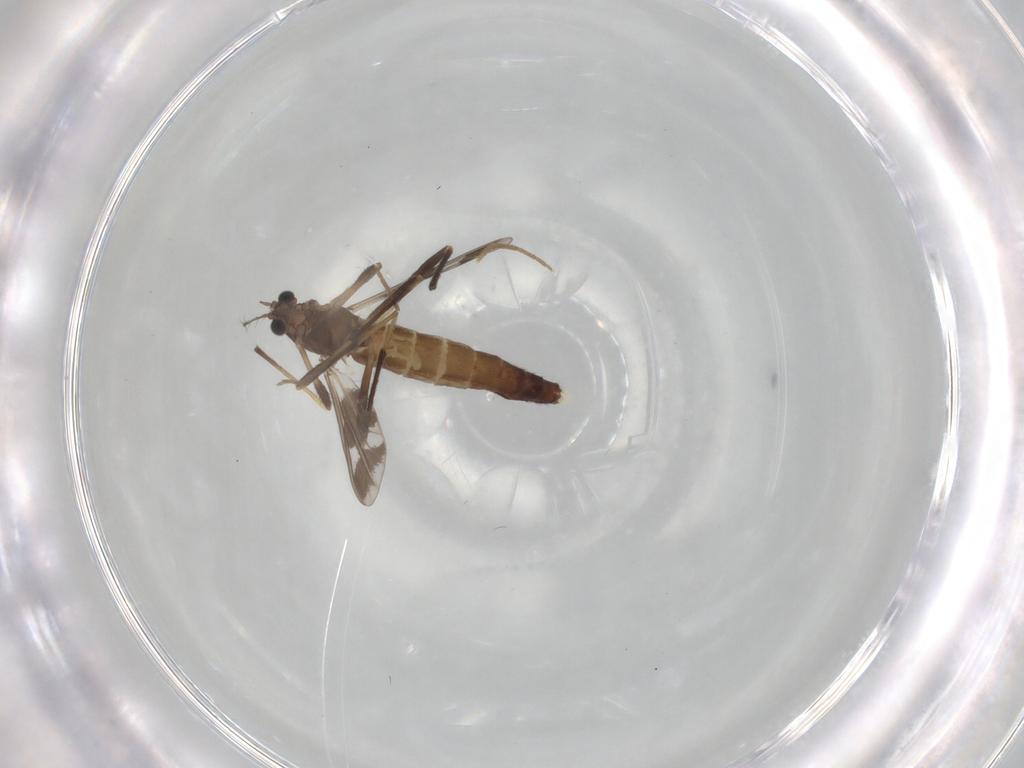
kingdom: Animalia
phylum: Arthropoda
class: Insecta
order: Diptera
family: Chironomidae
